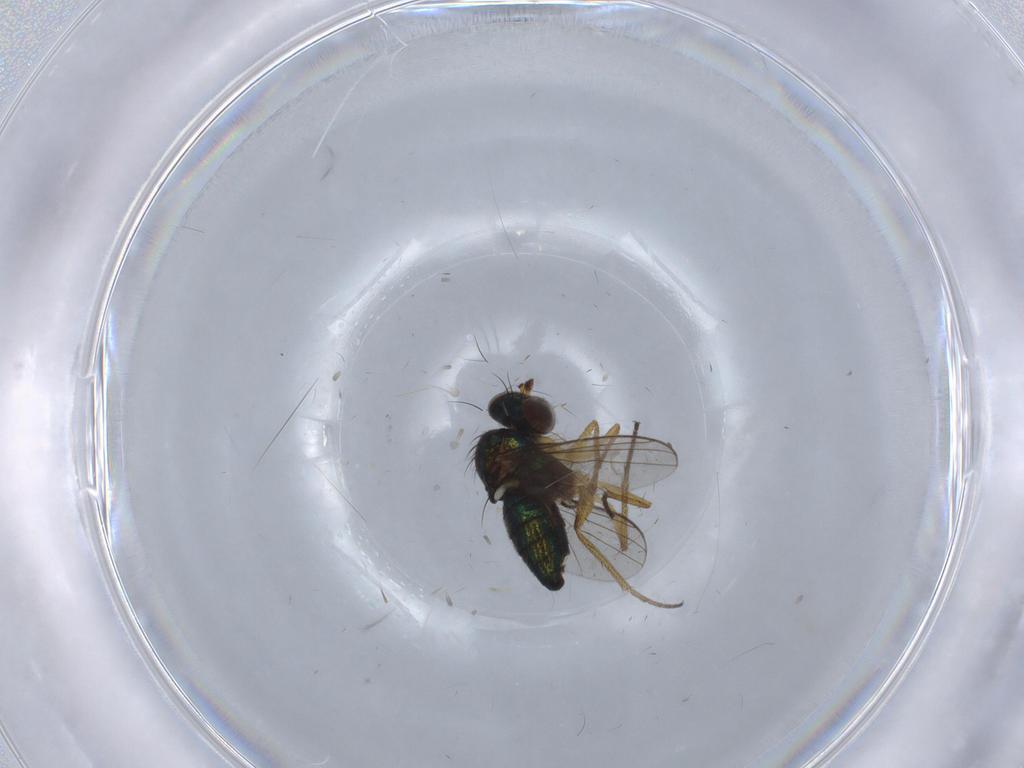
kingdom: Animalia
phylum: Arthropoda
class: Insecta
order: Diptera
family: Dolichopodidae
